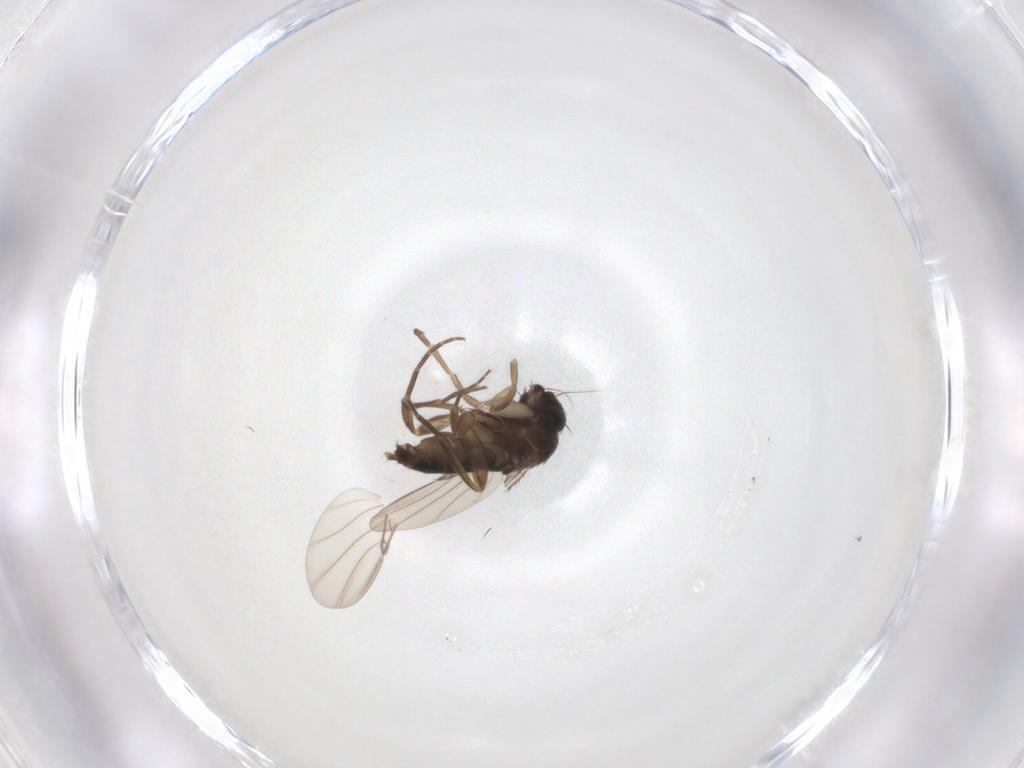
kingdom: Animalia
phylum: Arthropoda
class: Insecta
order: Diptera
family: Phoridae
